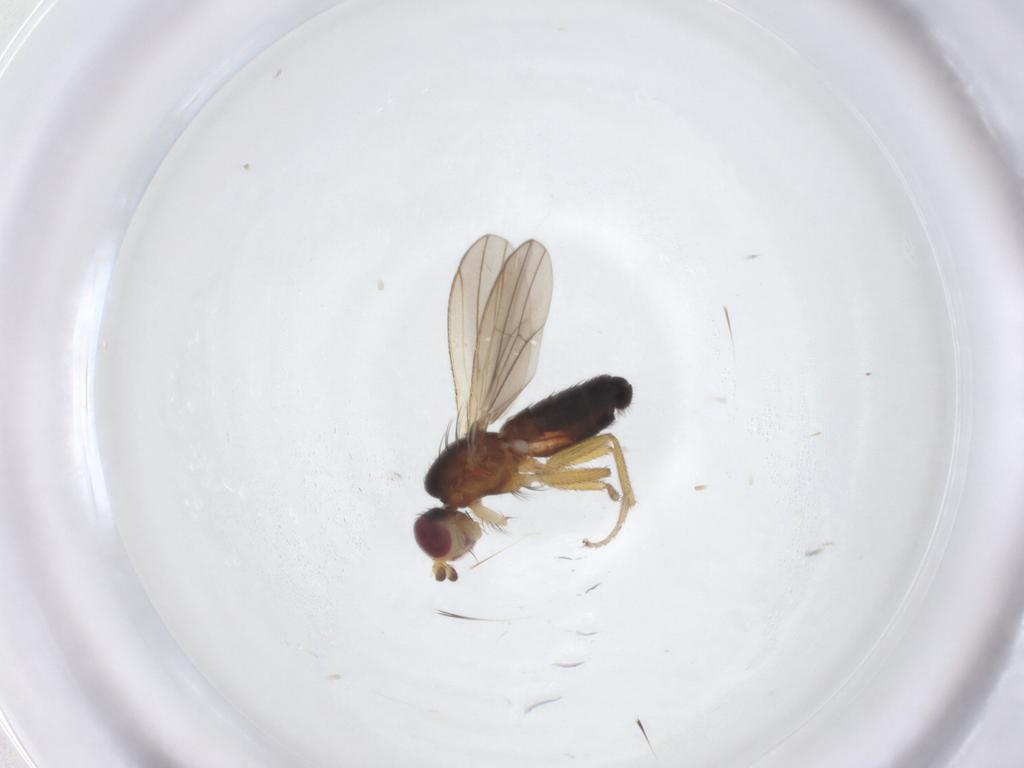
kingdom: Animalia
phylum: Arthropoda
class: Insecta
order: Diptera
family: Heleomyzidae
